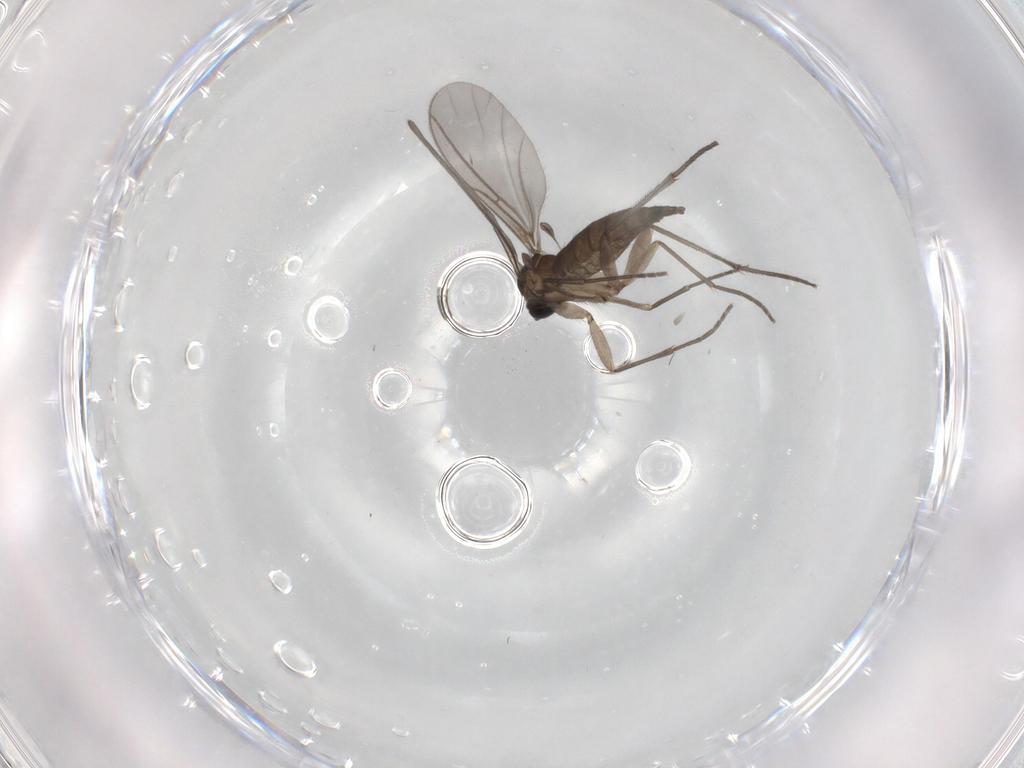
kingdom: Animalia
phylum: Arthropoda
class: Insecta
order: Diptera
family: Sciaridae
